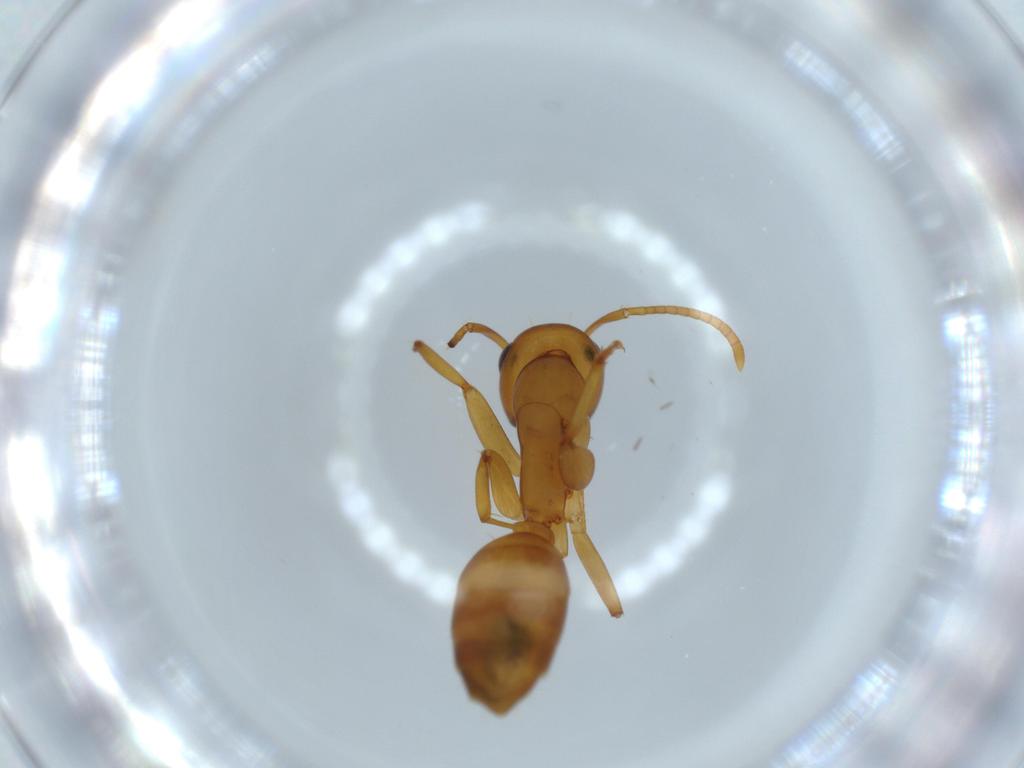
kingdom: Animalia
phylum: Arthropoda
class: Insecta
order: Hymenoptera
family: Formicidae
